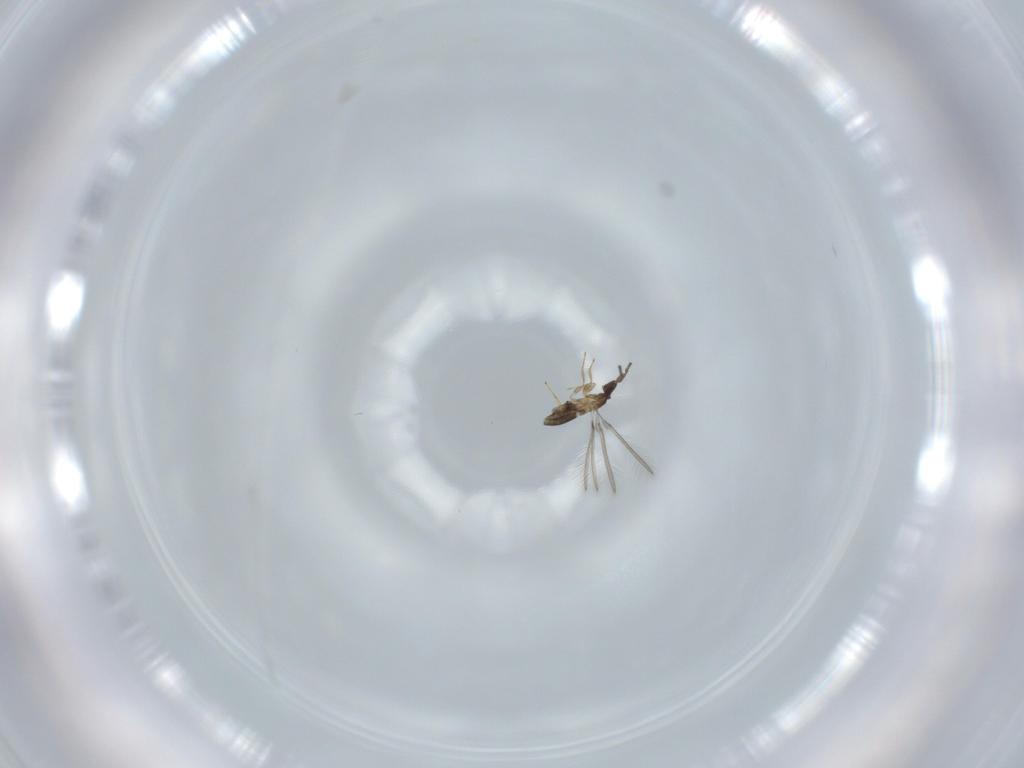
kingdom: Animalia
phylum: Arthropoda
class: Insecta
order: Hymenoptera
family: Mymaridae
